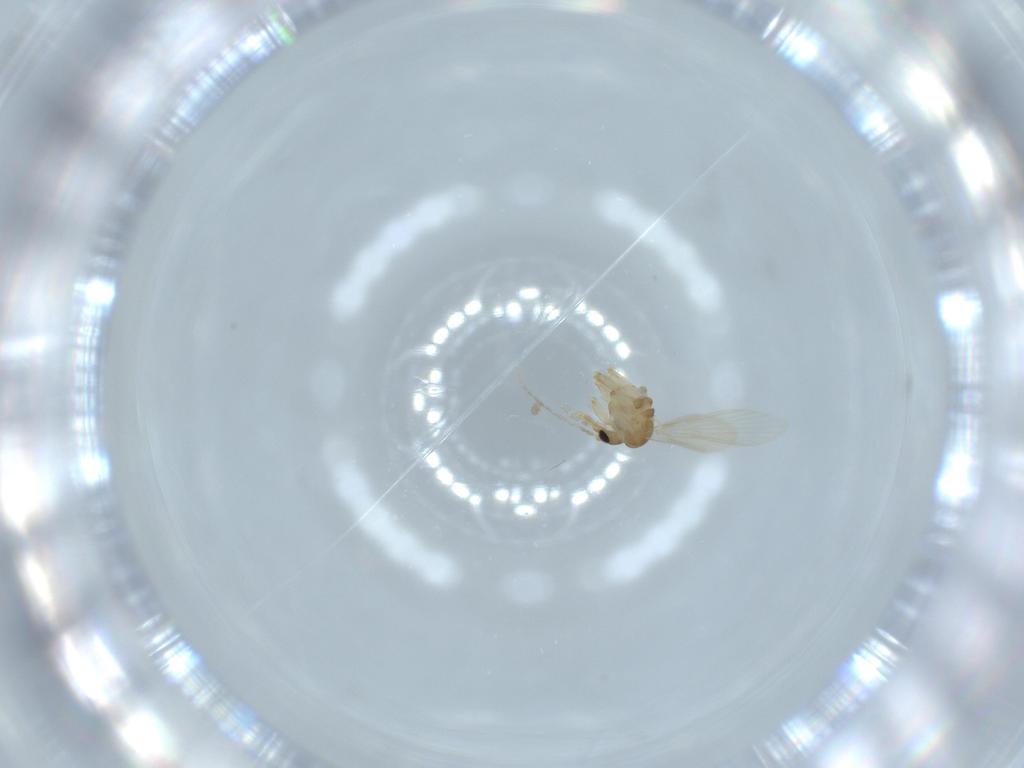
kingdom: Animalia
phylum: Arthropoda
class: Insecta
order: Diptera
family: Psychodidae
